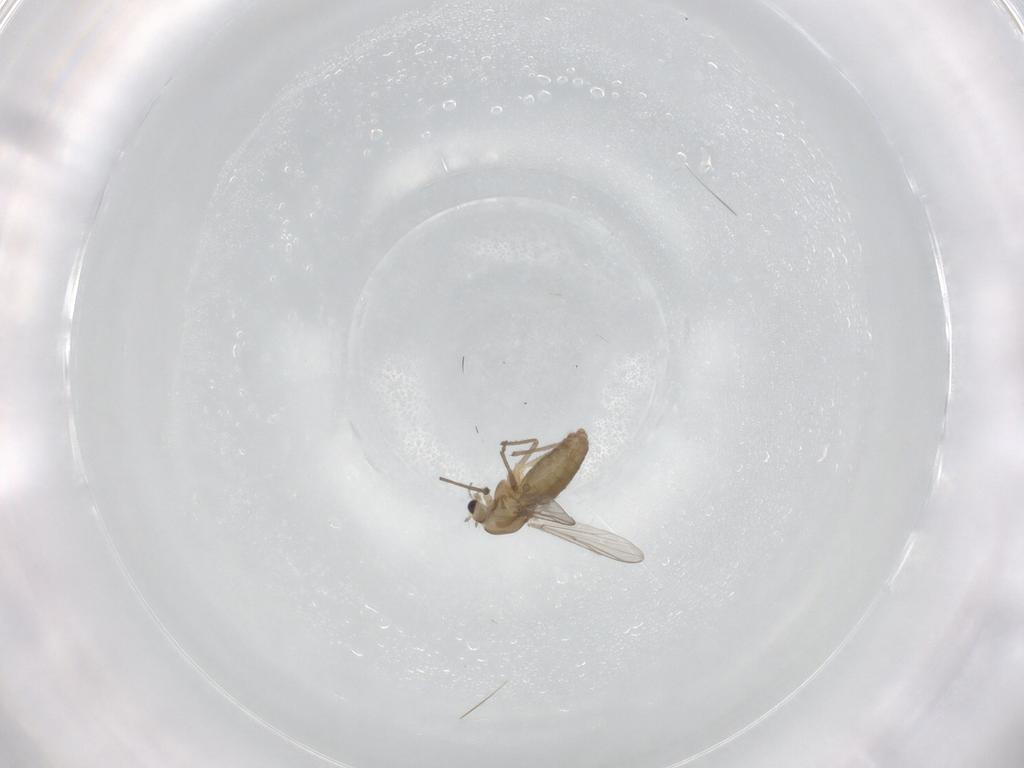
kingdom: Animalia
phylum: Arthropoda
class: Insecta
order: Diptera
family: Chironomidae
